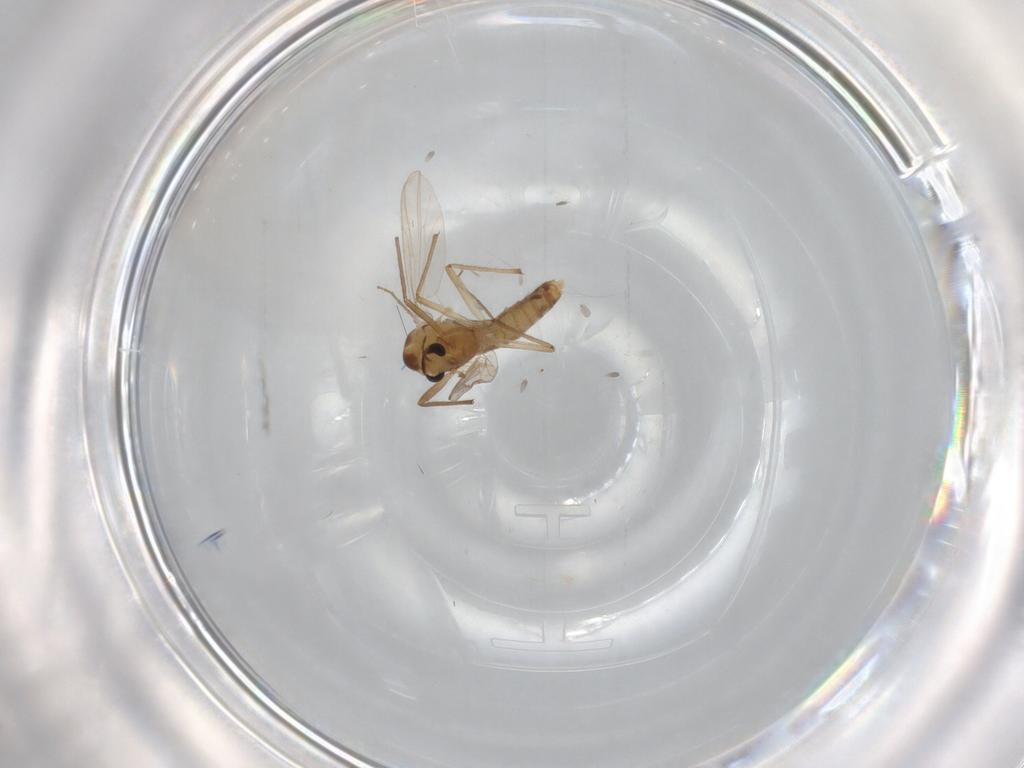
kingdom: Animalia
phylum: Arthropoda
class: Insecta
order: Diptera
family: Chironomidae
